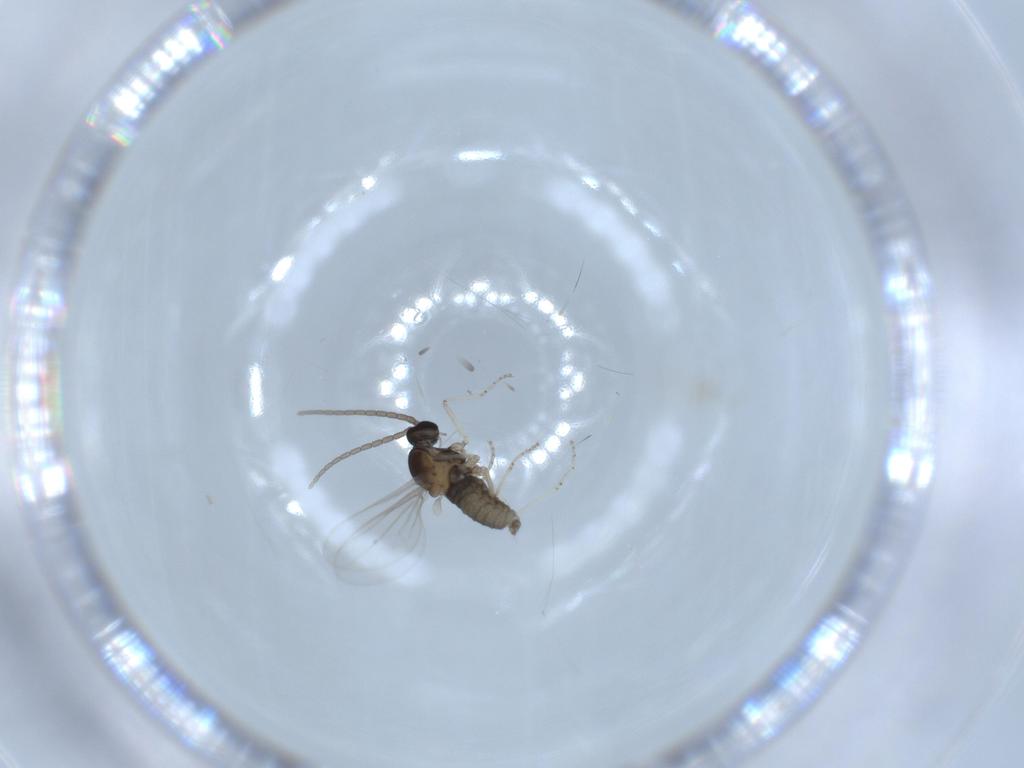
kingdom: Animalia
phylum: Arthropoda
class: Insecta
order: Diptera
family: Cecidomyiidae
